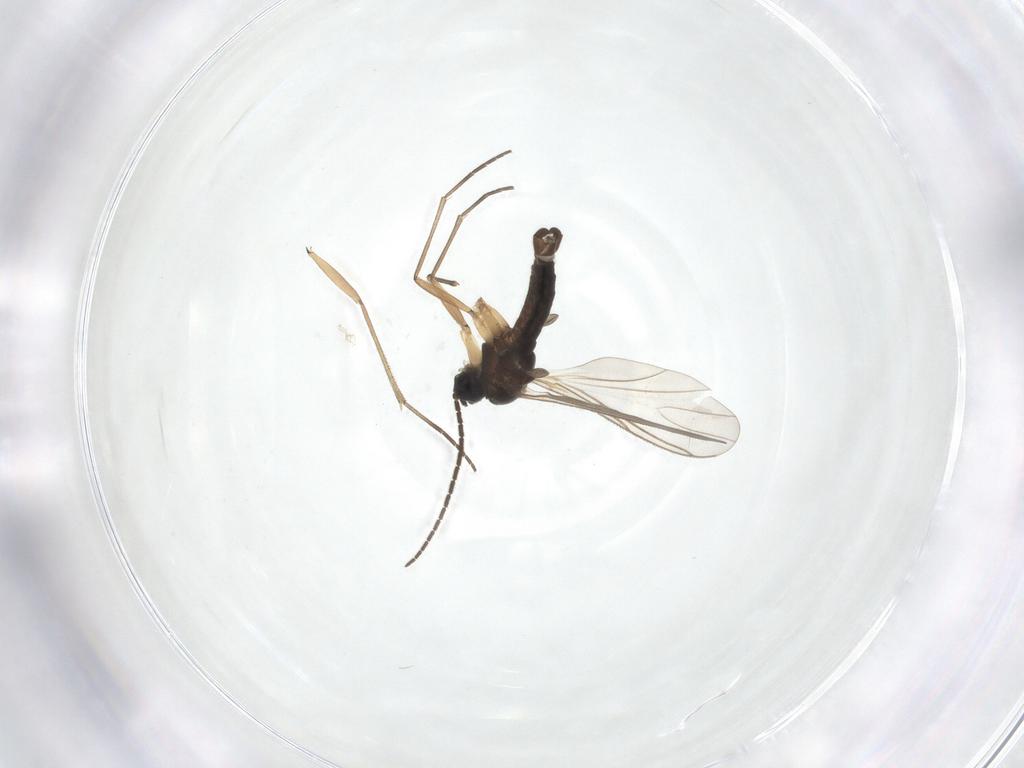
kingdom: Animalia
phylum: Arthropoda
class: Insecta
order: Diptera
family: Sciaridae
